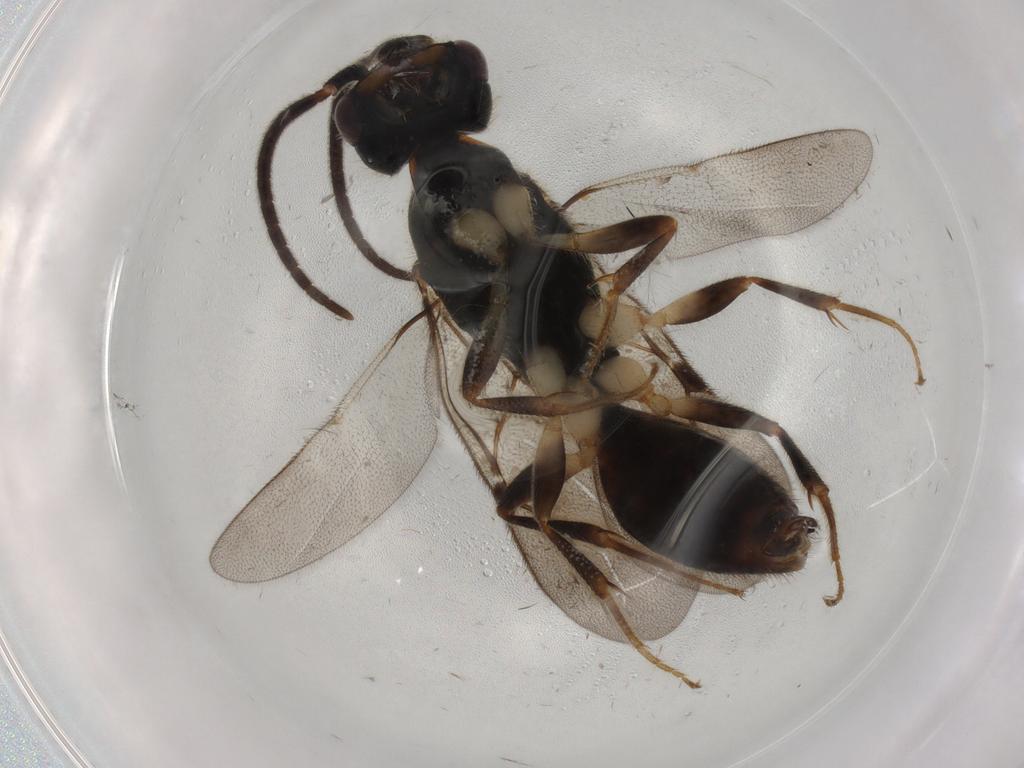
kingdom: Animalia
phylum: Arthropoda
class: Insecta
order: Hymenoptera
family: Bethylidae
